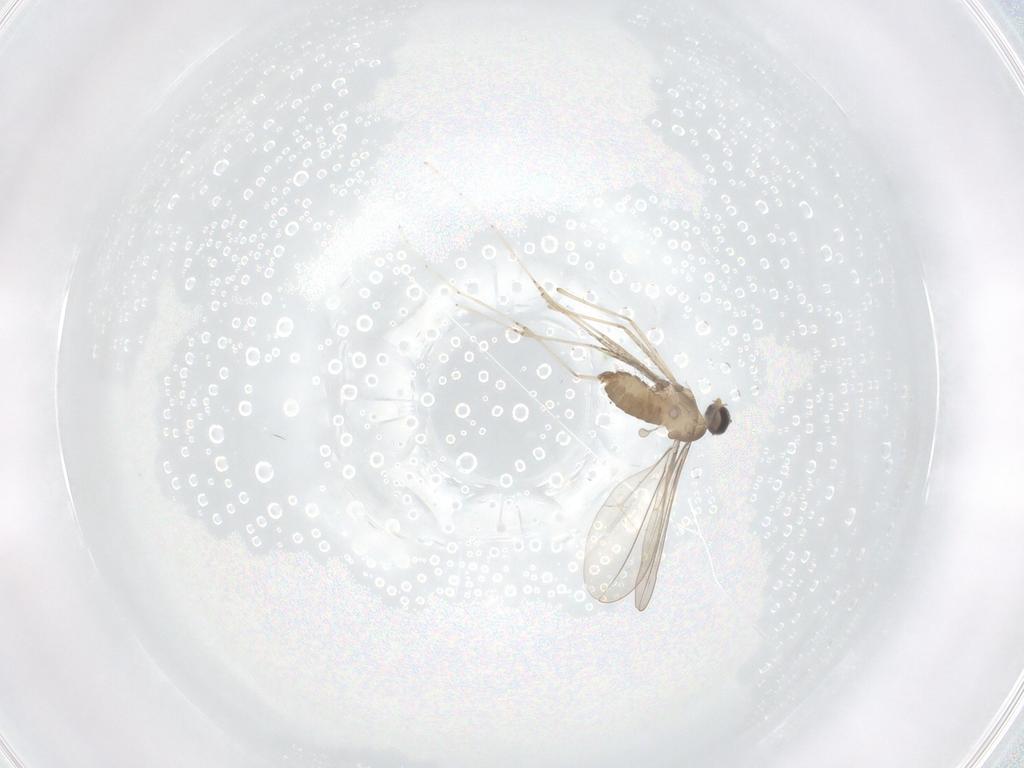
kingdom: Animalia
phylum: Arthropoda
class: Insecta
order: Diptera
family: Cecidomyiidae
